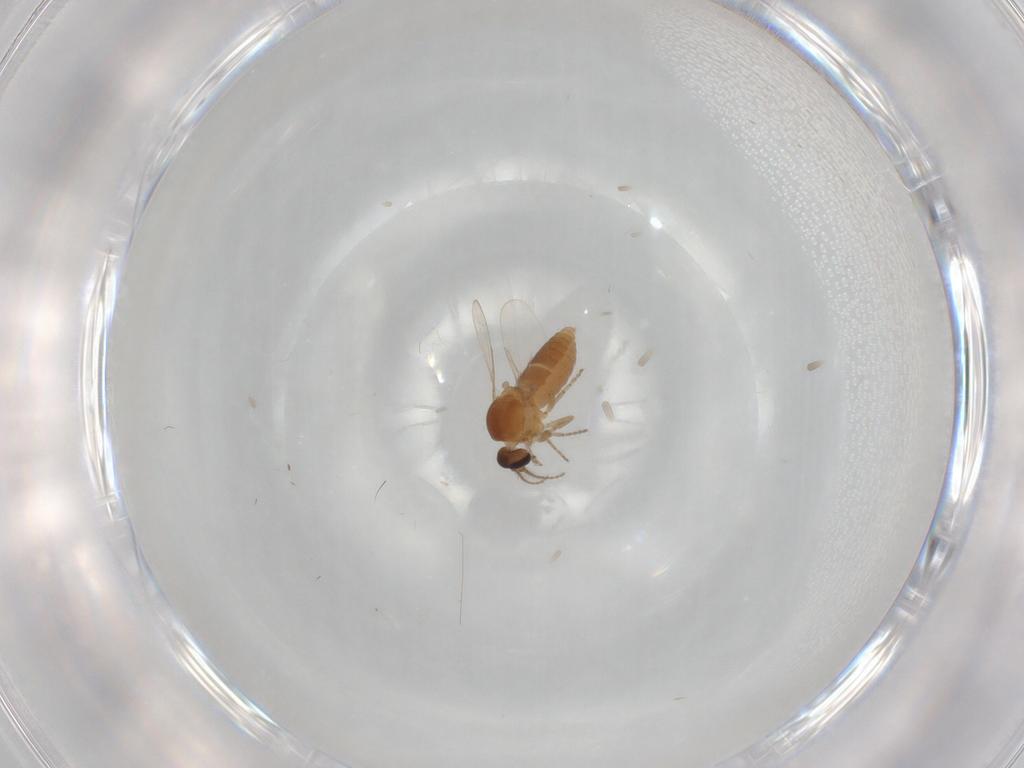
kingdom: Animalia
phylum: Arthropoda
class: Insecta
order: Diptera
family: Ceratopogonidae
